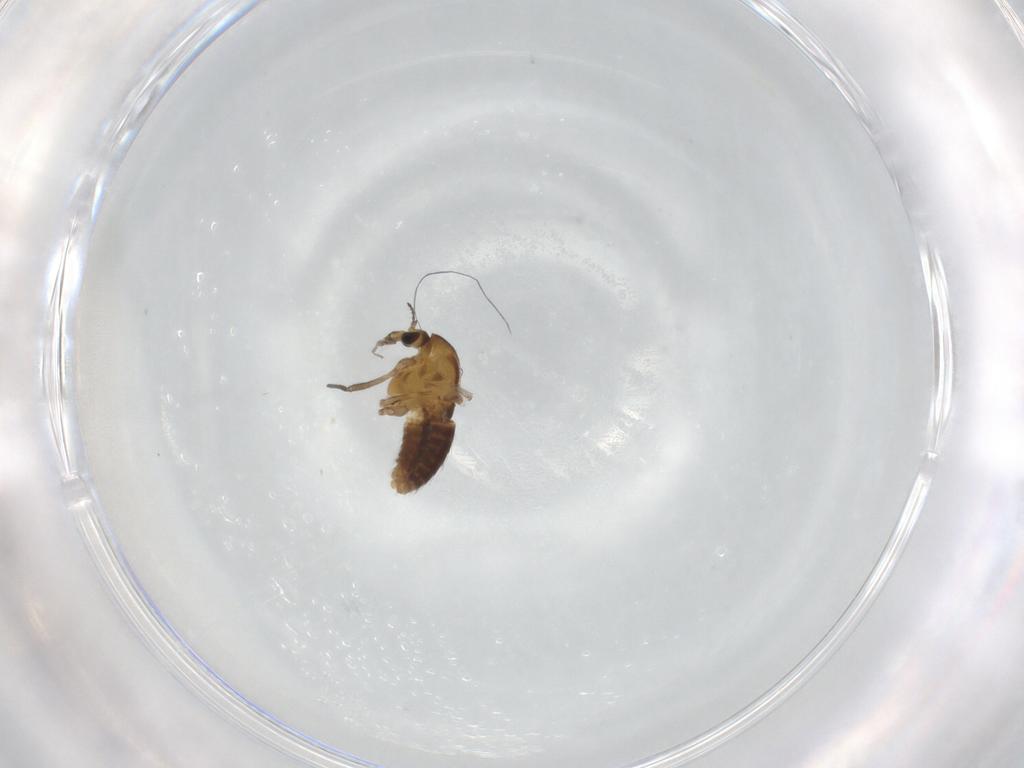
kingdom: Animalia
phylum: Arthropoda
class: Insecta
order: Diptera
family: Chironomidae
